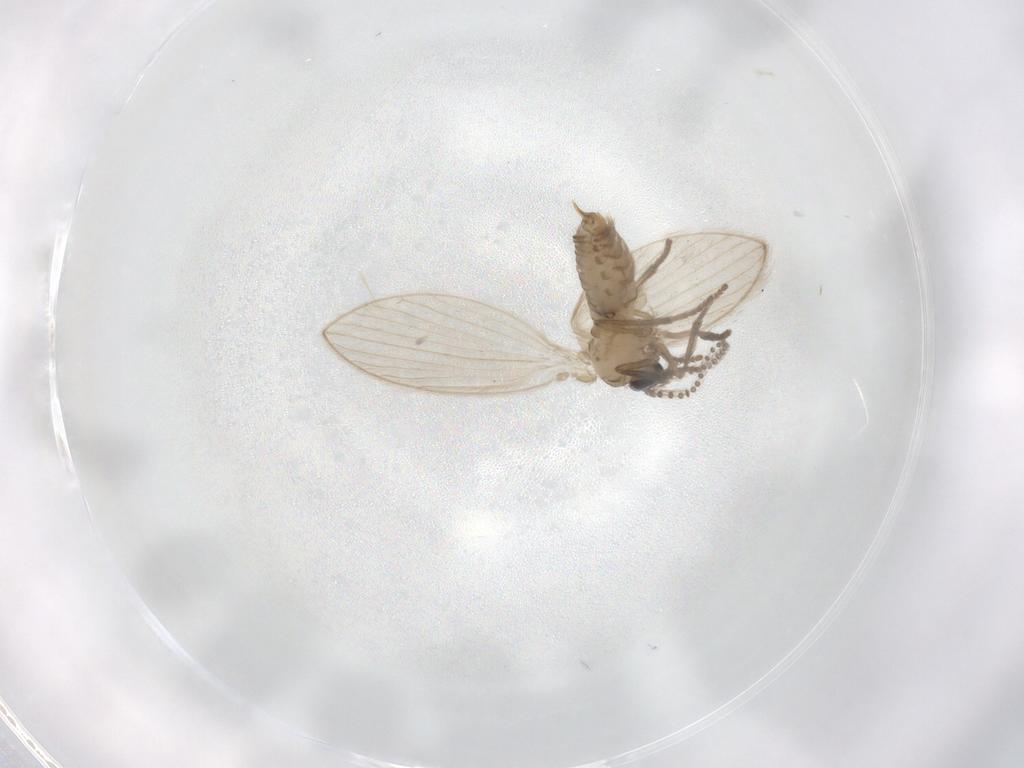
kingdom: Animalia
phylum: Arthropoda
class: Insecta
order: Diptera
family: Psychodidae
